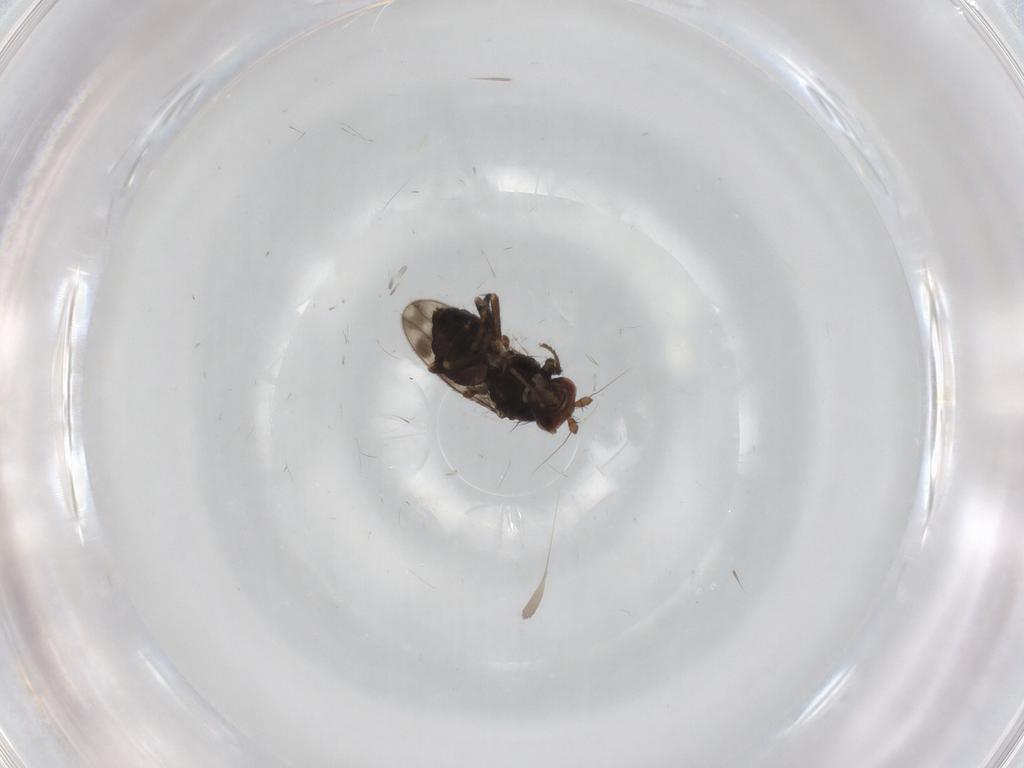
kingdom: Animalia
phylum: Arthropoda
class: Insecta
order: Diptera
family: Sphaeroceridae
